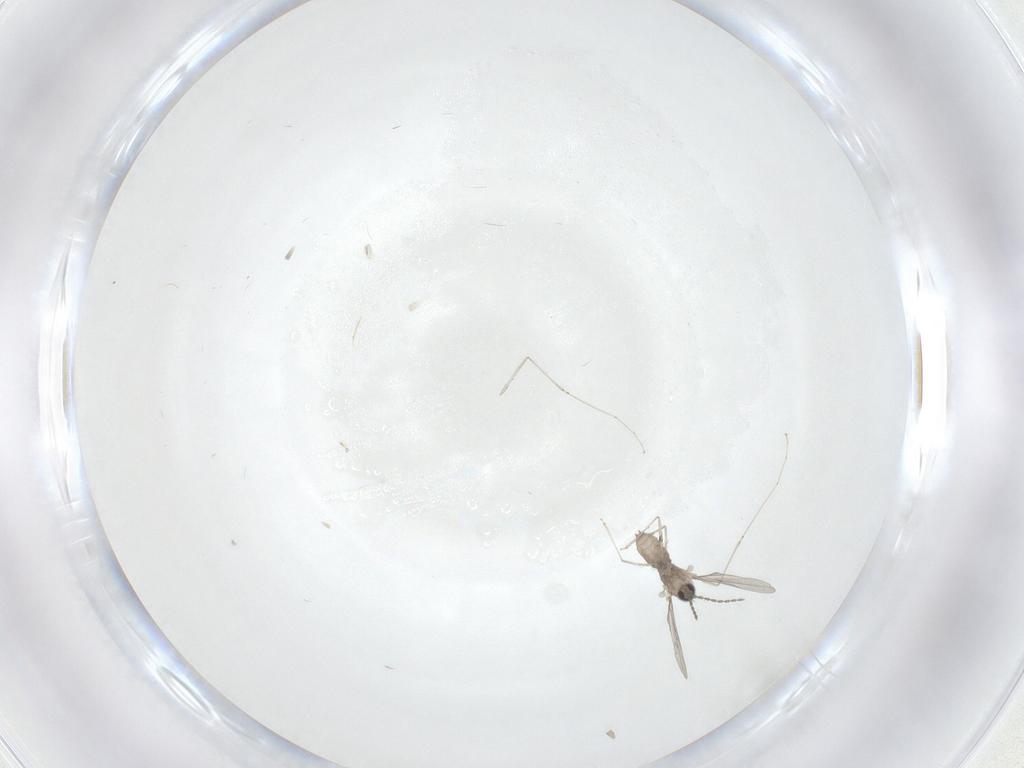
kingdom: Animalia
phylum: Arthropoda
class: Insecta
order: Diptera
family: Cecidomyiidae
